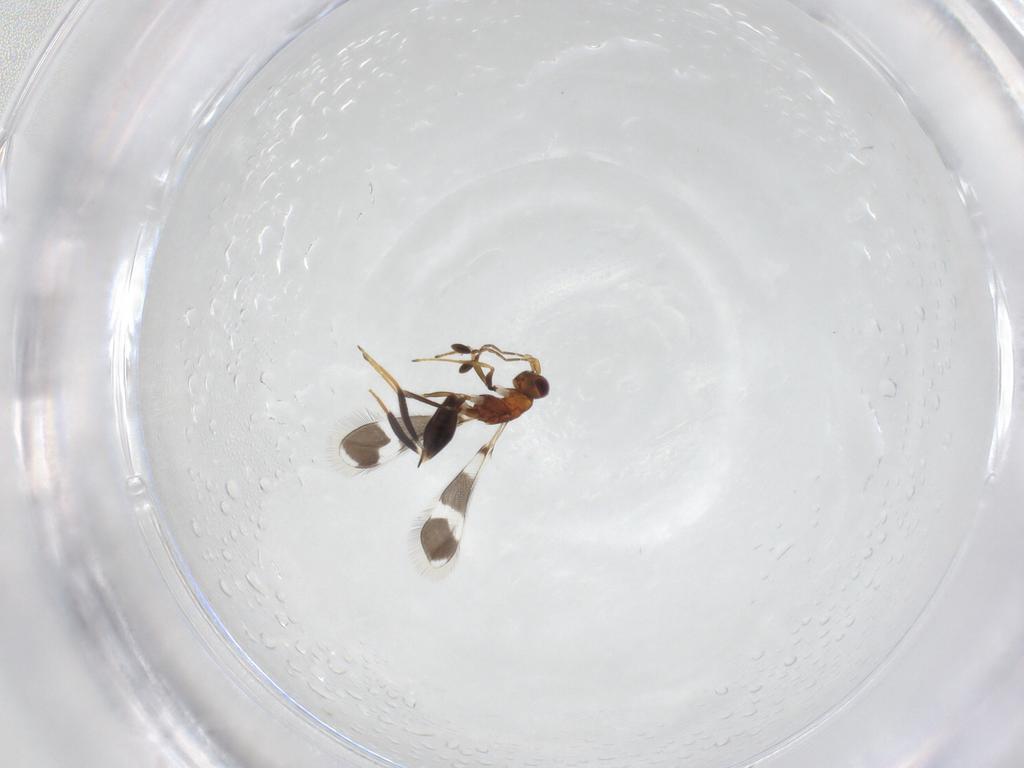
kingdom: Animalia
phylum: Arthropoda
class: Insecta
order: Hymenoptera
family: Mymaridae
